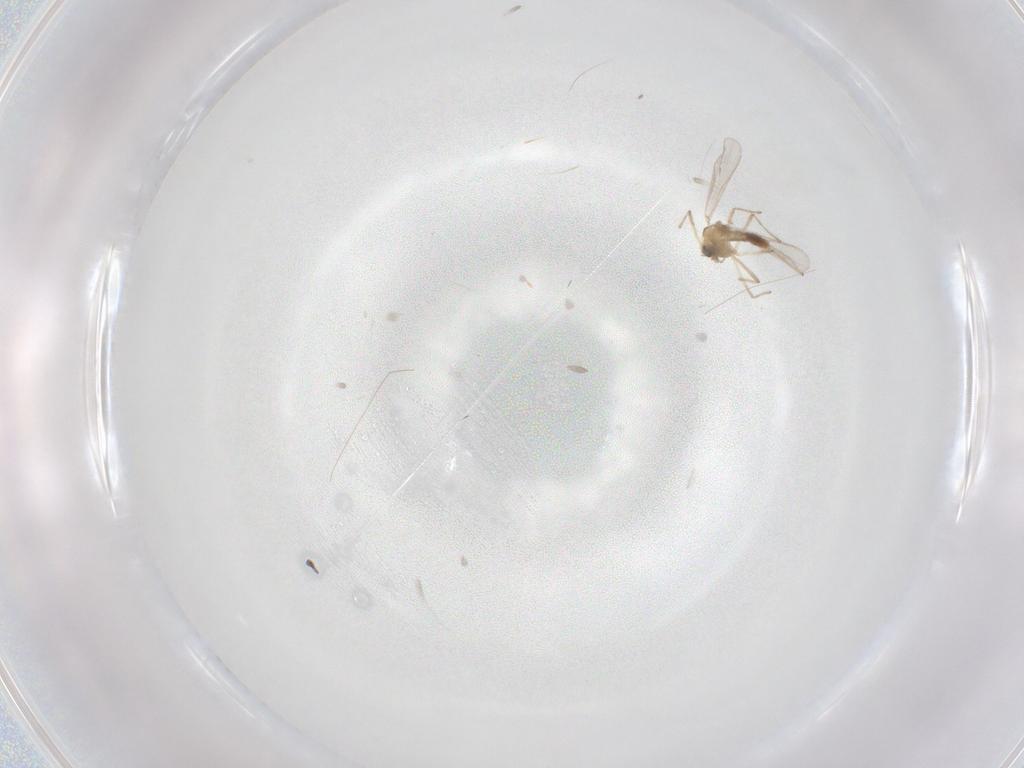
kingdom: Animalia
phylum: Arthropoda
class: Insecta
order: Diptera
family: Chironomidae
